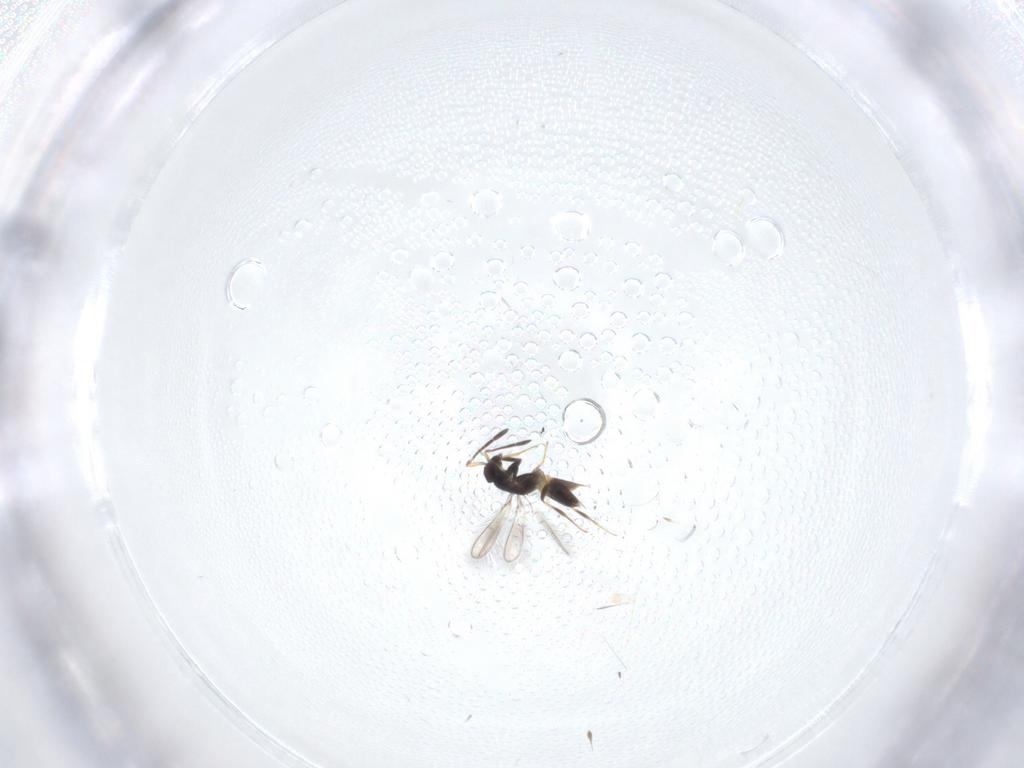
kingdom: Animalia
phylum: Arthropoda
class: Insecta
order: Hymenoptera
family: Mymaridae
